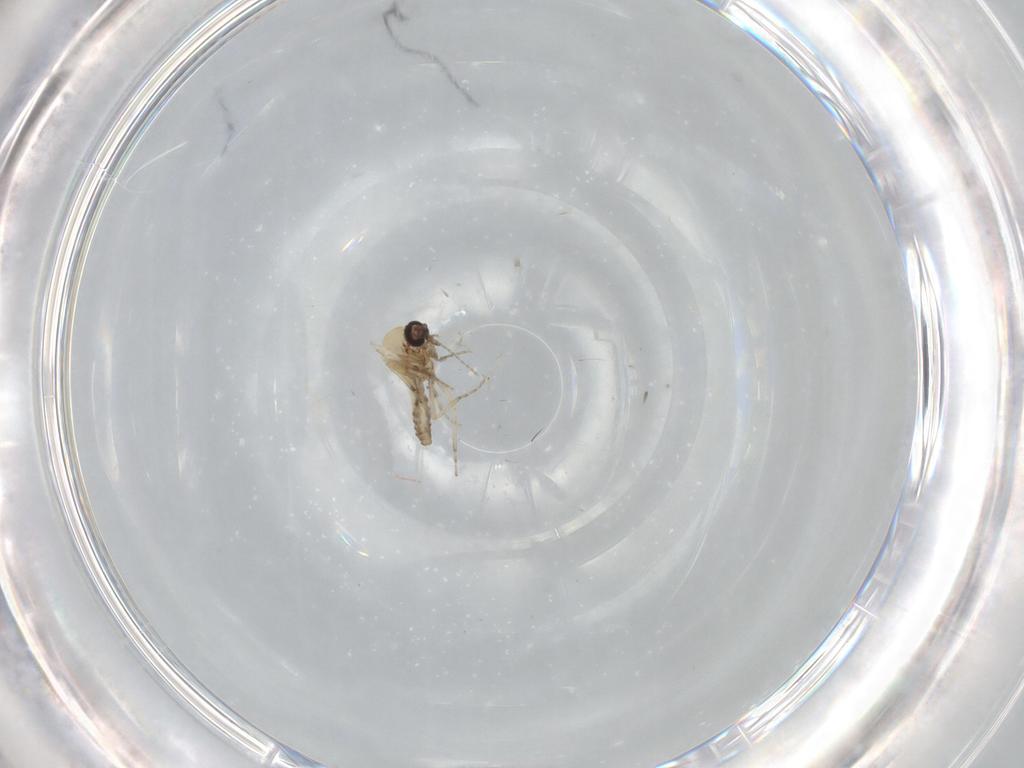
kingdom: Animalia
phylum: Arthropoda
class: Insecta
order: Diptera
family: Ceratopogonidae
